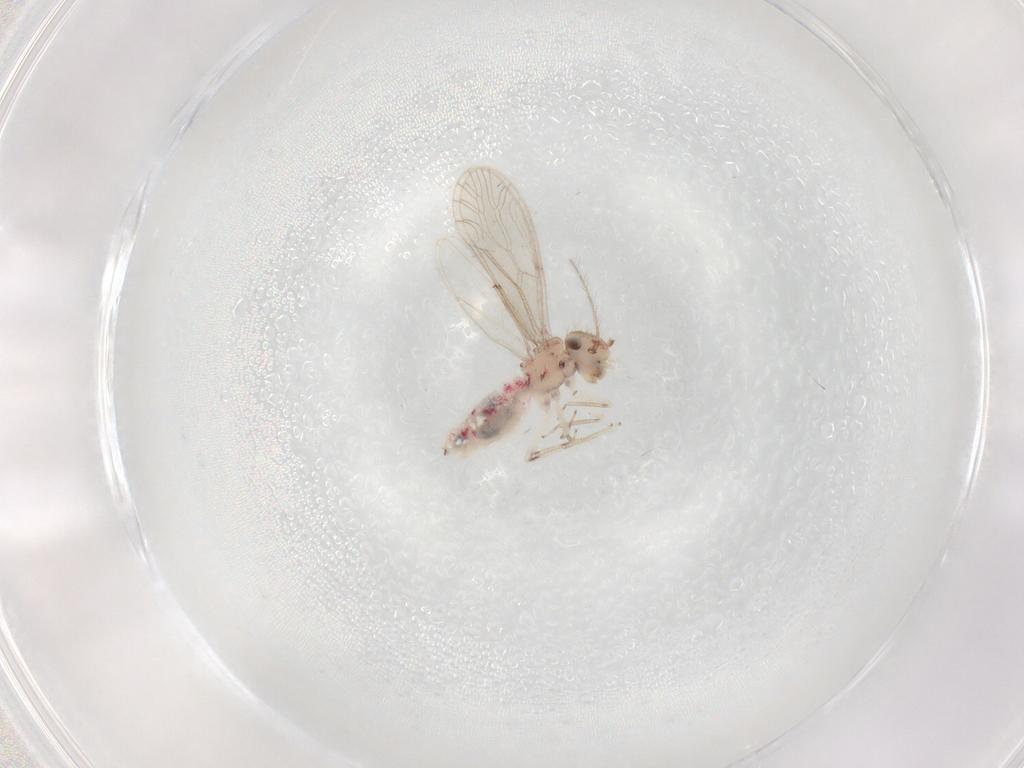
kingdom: Animalia
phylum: Arthropoda
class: Insecta
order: Psocodea
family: Caeciliusidae
